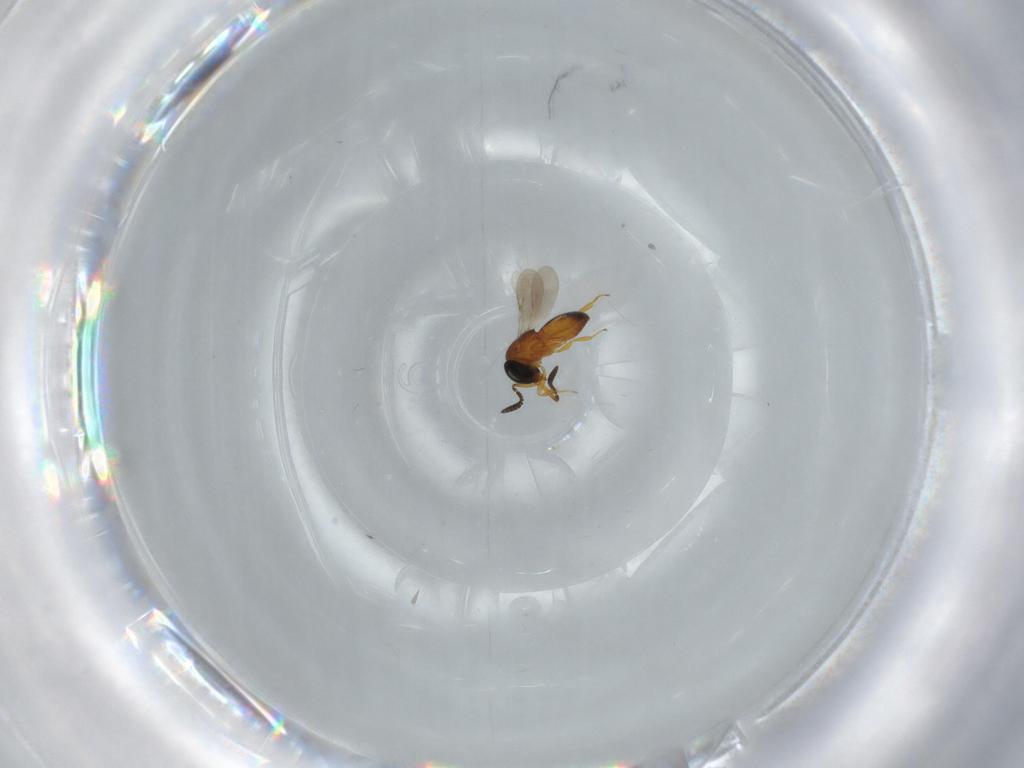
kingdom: Animalia
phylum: Arthropoda
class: Insecta
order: Hymenoptera
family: Scelionidae
